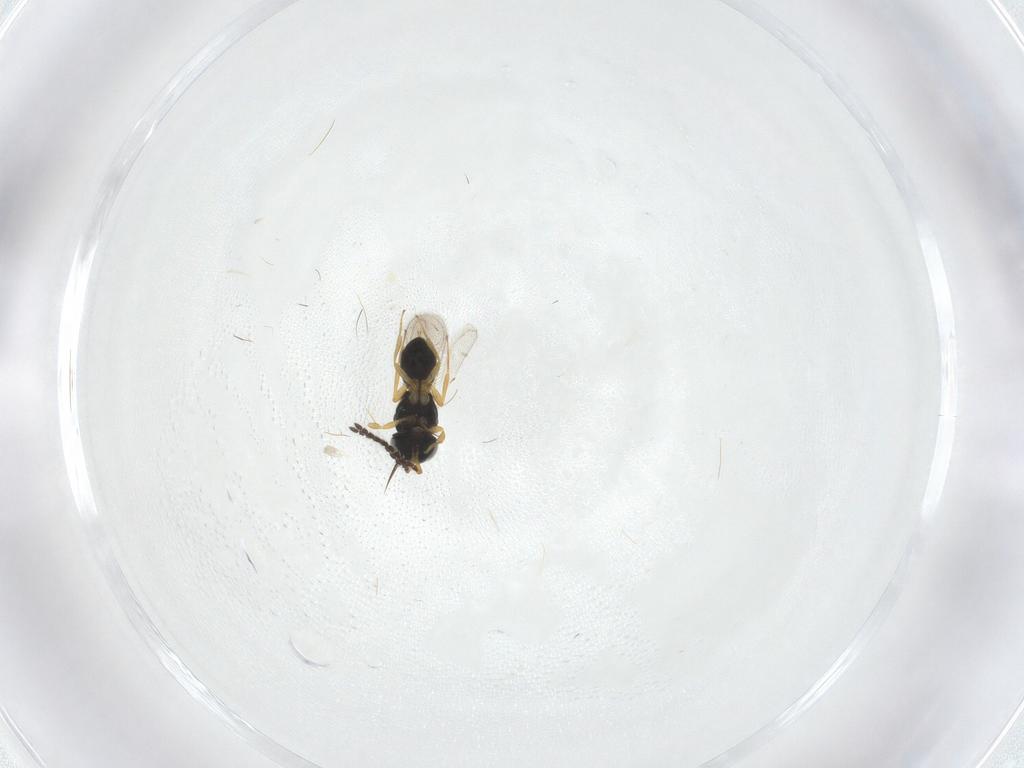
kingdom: Animalia
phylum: Arthropoda
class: Insecta
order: Hymenoptera
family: Scelionidae
